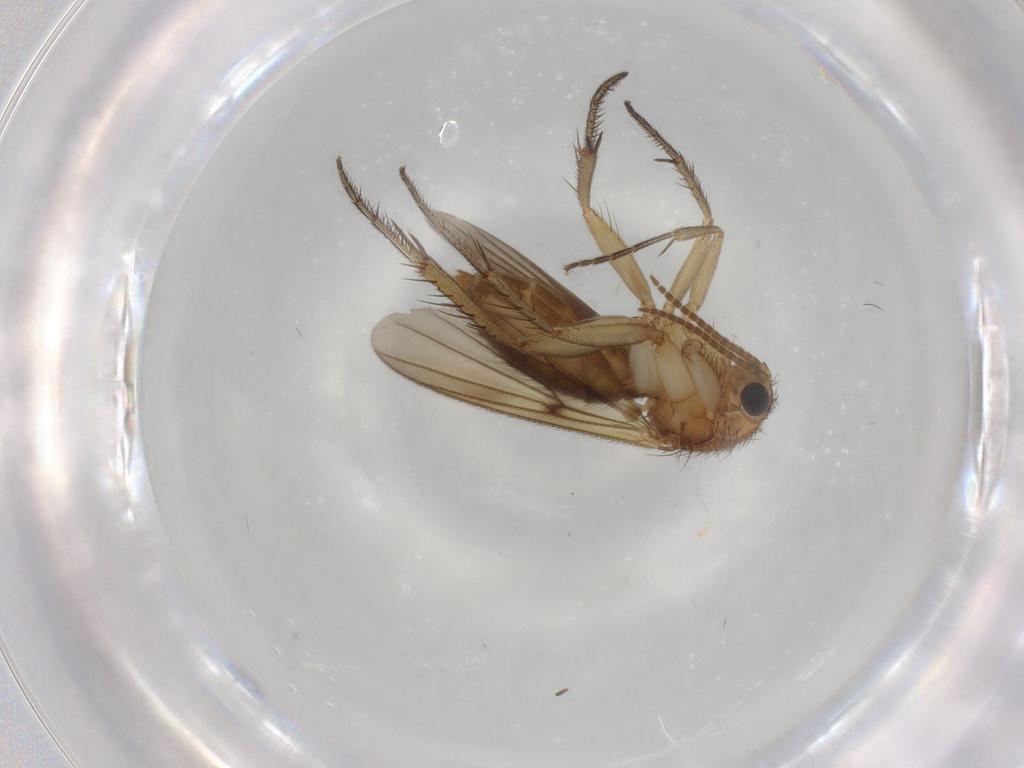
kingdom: Animalia
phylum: Arthropoda
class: Insecta
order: Diptera
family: Mycetophilidae
